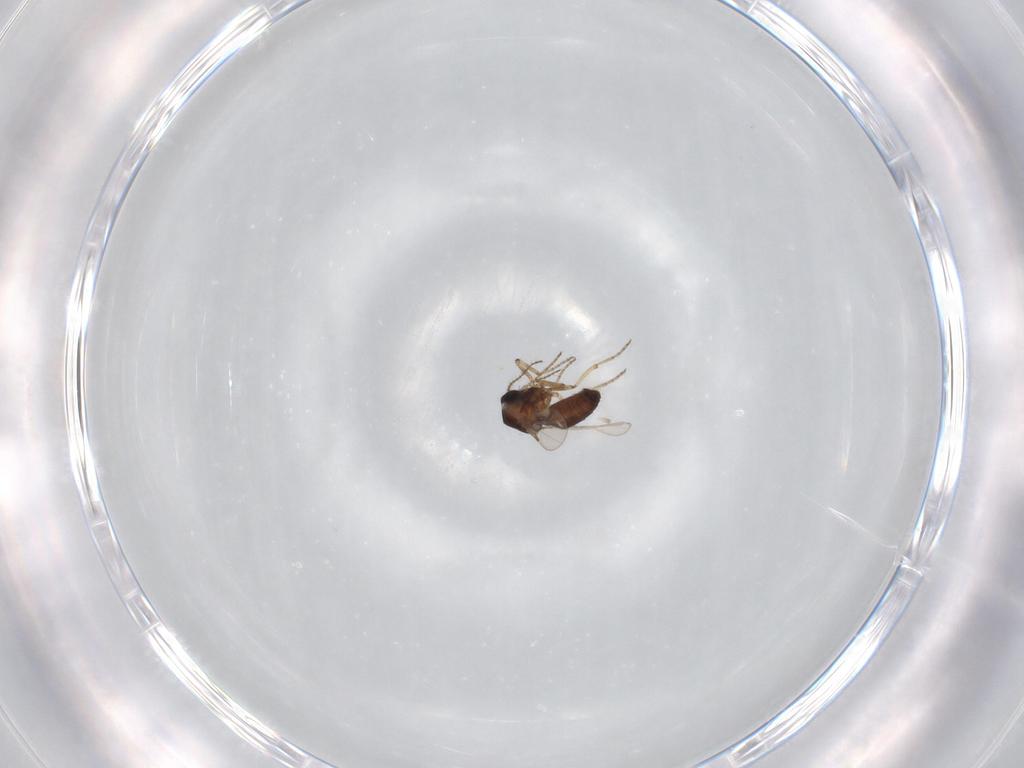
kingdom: Animalia
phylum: Arthropoda
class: Insecta
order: Diptera
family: Ceratopogonidae
